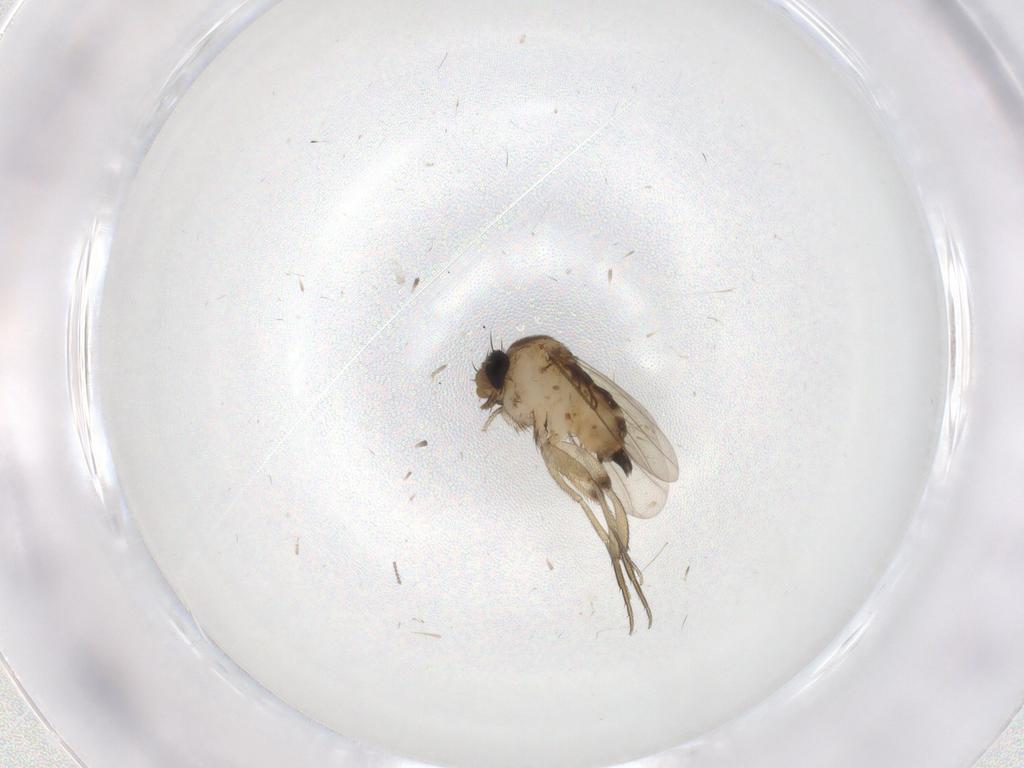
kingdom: Animalia
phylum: Arthropoda
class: Insecta
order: Diptera
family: Phoridae
